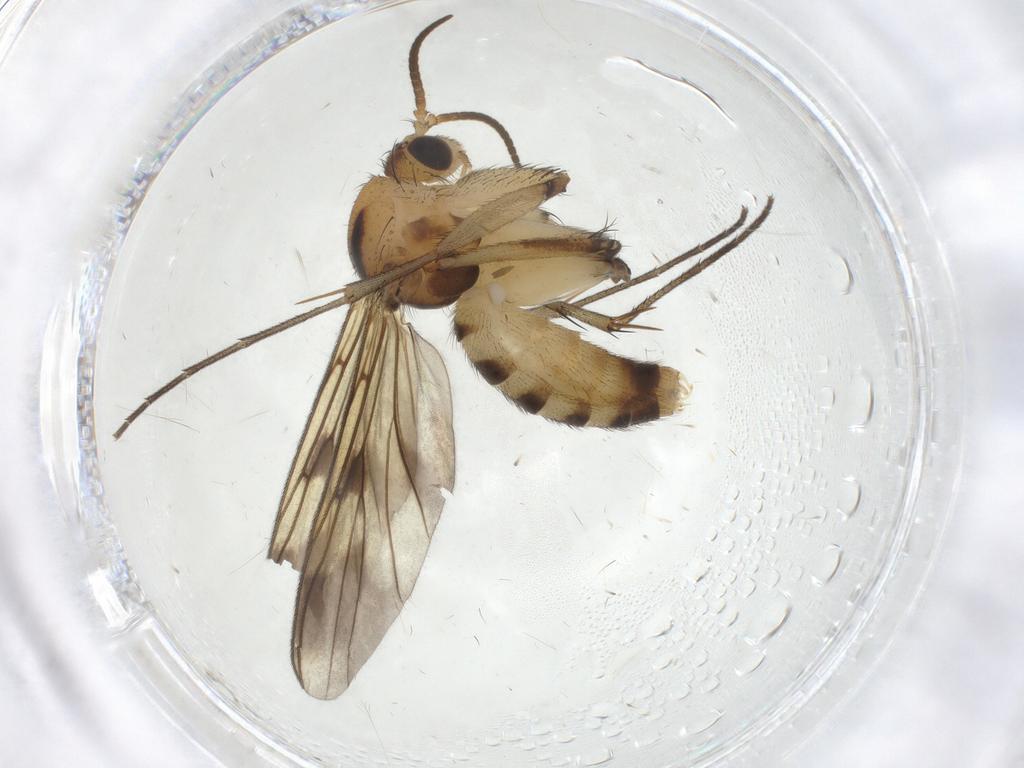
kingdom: Animalia
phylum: Arthropoda
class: Insecta
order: Diptera
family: Mycetophilidae
